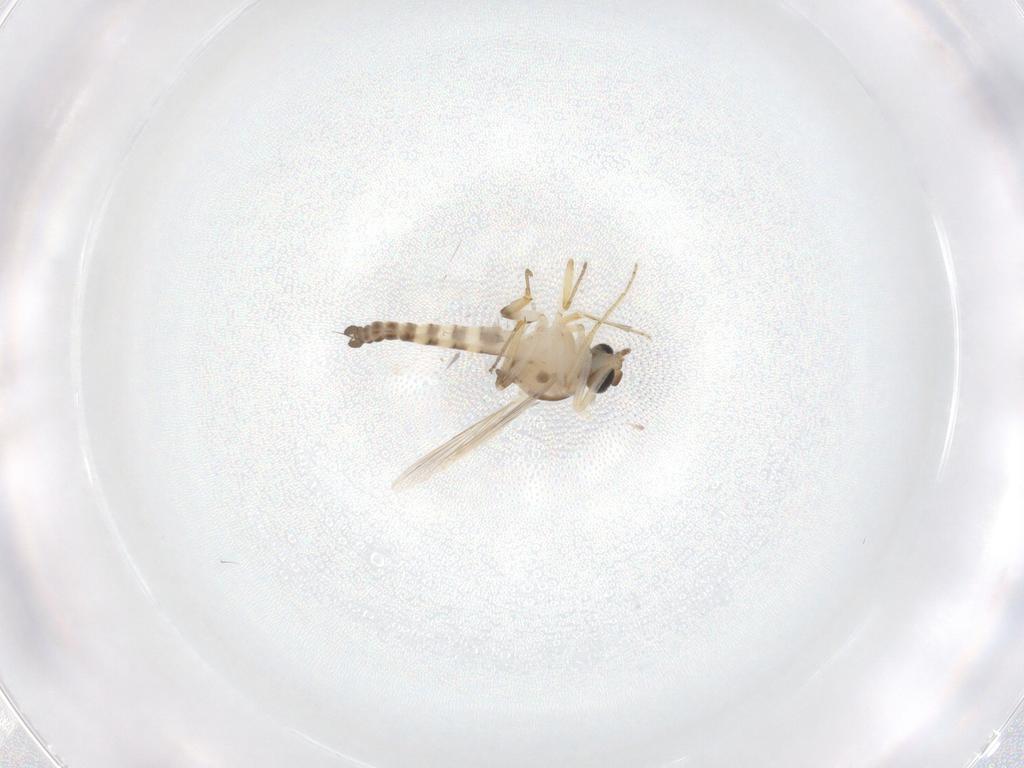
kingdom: Animalia
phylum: Arthropoda
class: Insecta
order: Diptera
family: Ceratopogonidae
